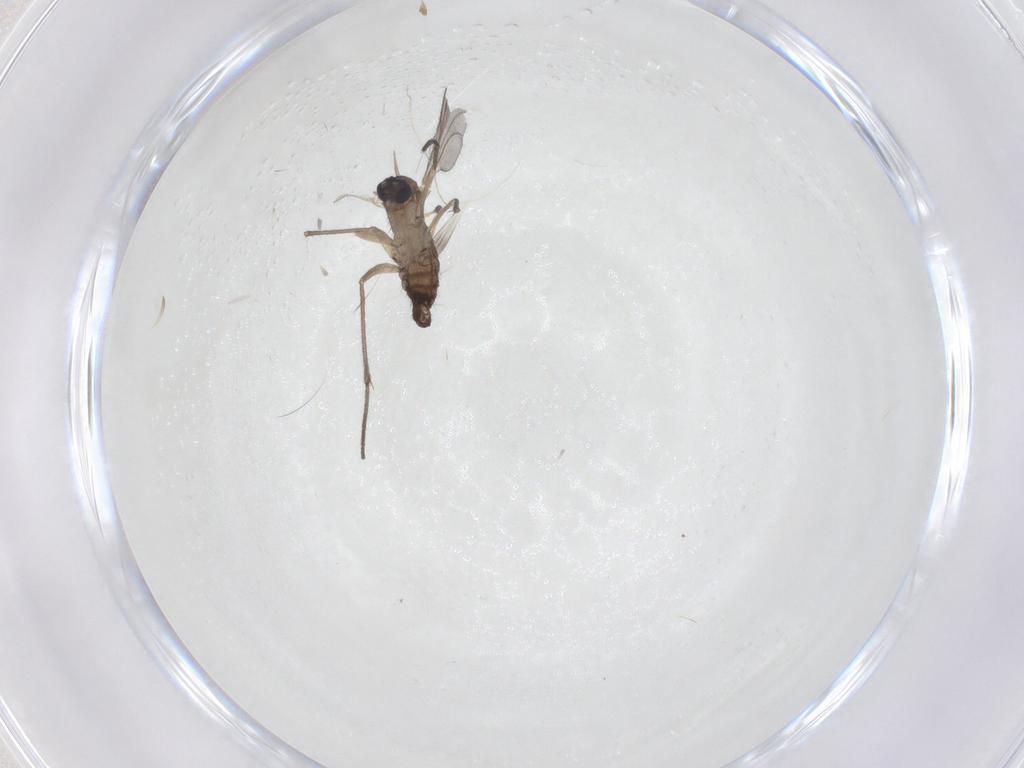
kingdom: Animalia
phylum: Arthropoda
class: Insecta
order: Diptera
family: Sciaridae
